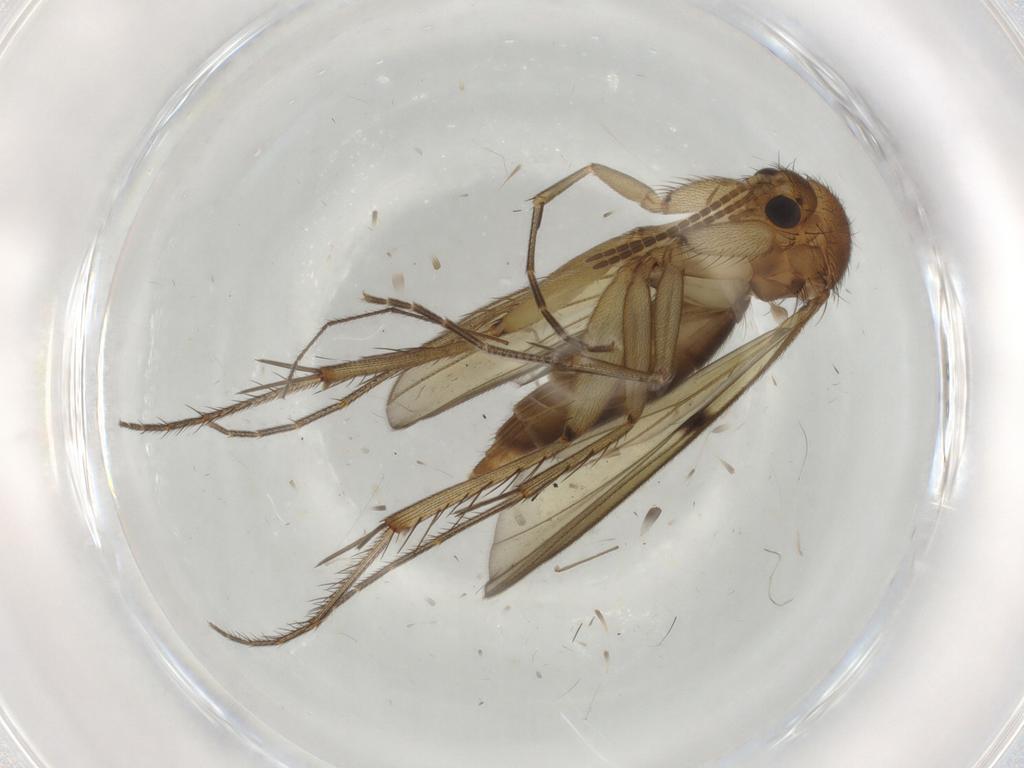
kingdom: Animalia
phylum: Arthropoda
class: Insecta
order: Diptera
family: Mycetophilidae
